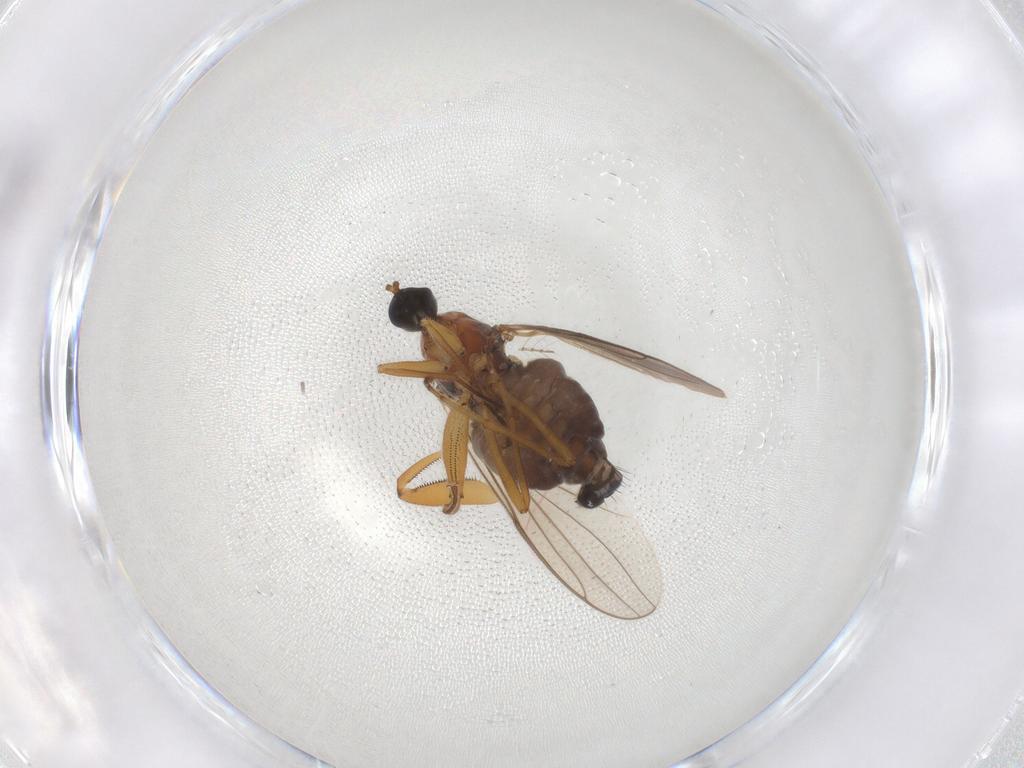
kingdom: Animalia
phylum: Arthropoda
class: Insecta
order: Diptera
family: Hybotidae
